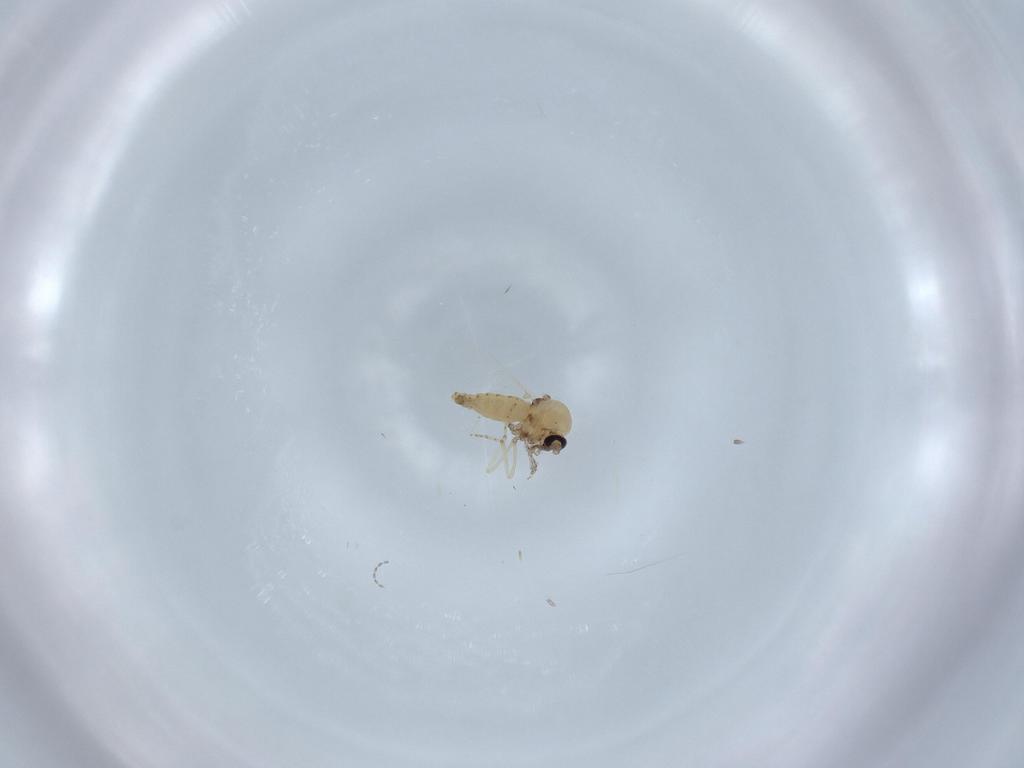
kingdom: Animalia
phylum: Arthropoda
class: Insecta
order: Diptera
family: Ceratopogonidae
